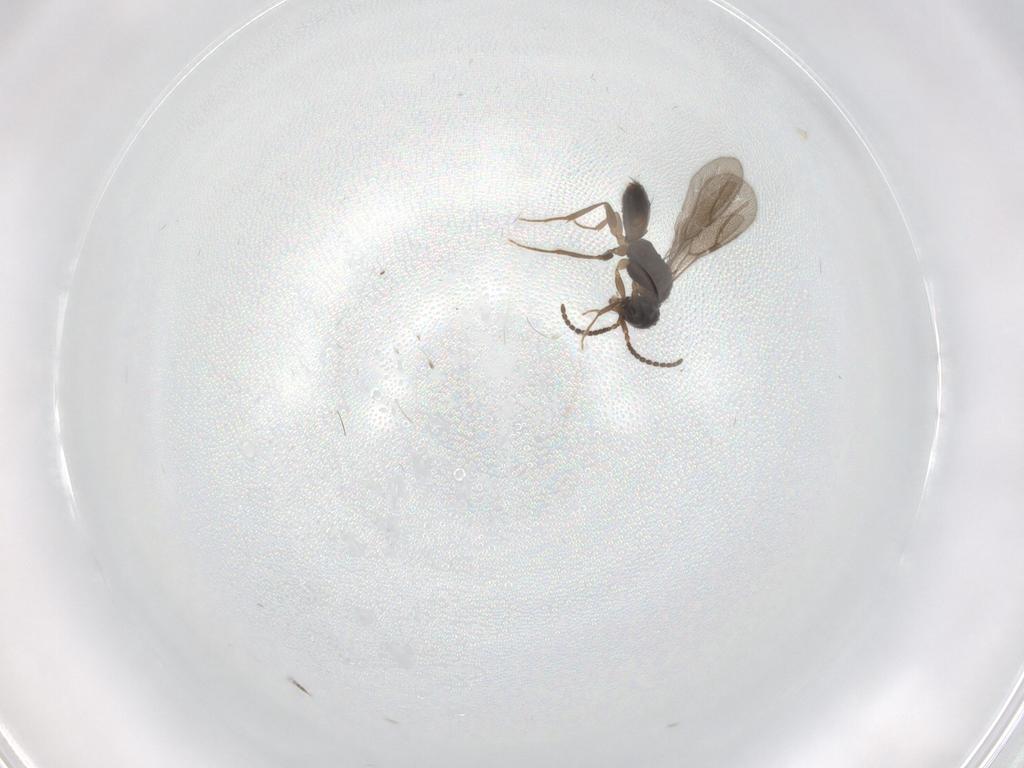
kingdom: Animalia
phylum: Arthropoda
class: Insecta
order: Hymenoptera
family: Bethylidae
